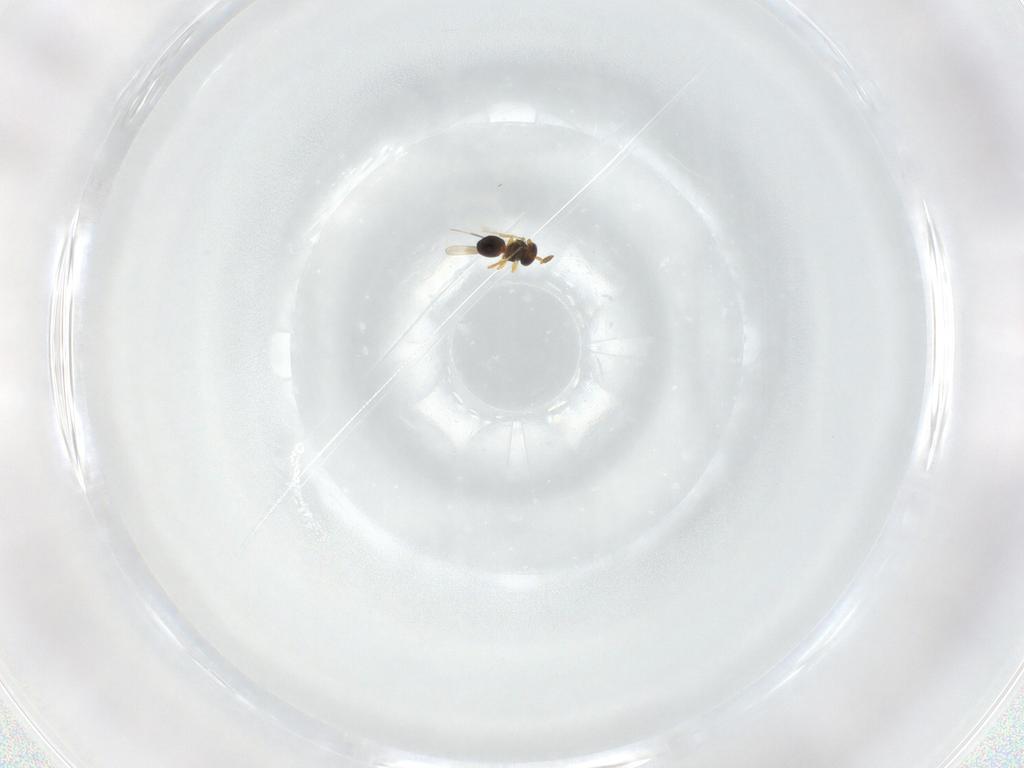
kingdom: Animalia
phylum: Arthropoda
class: Insecta
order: Hymenoptera
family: Platygastridae
